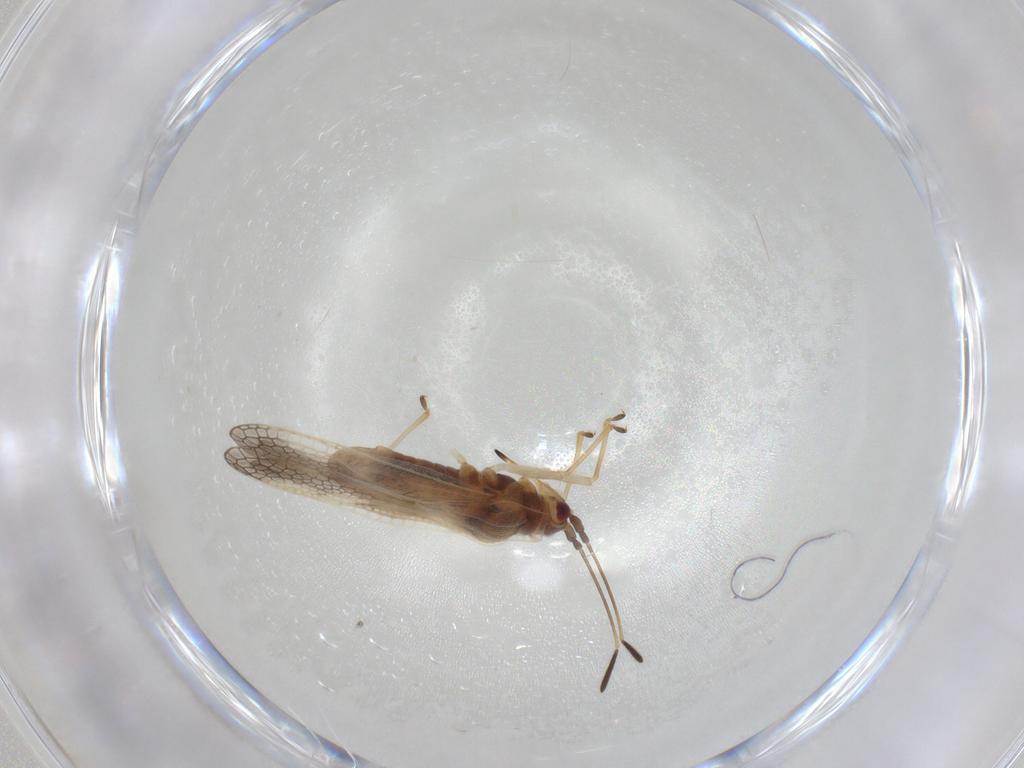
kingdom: Animalia
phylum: Arthropoda
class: Insecta
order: Hemiptera
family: Tingidae
